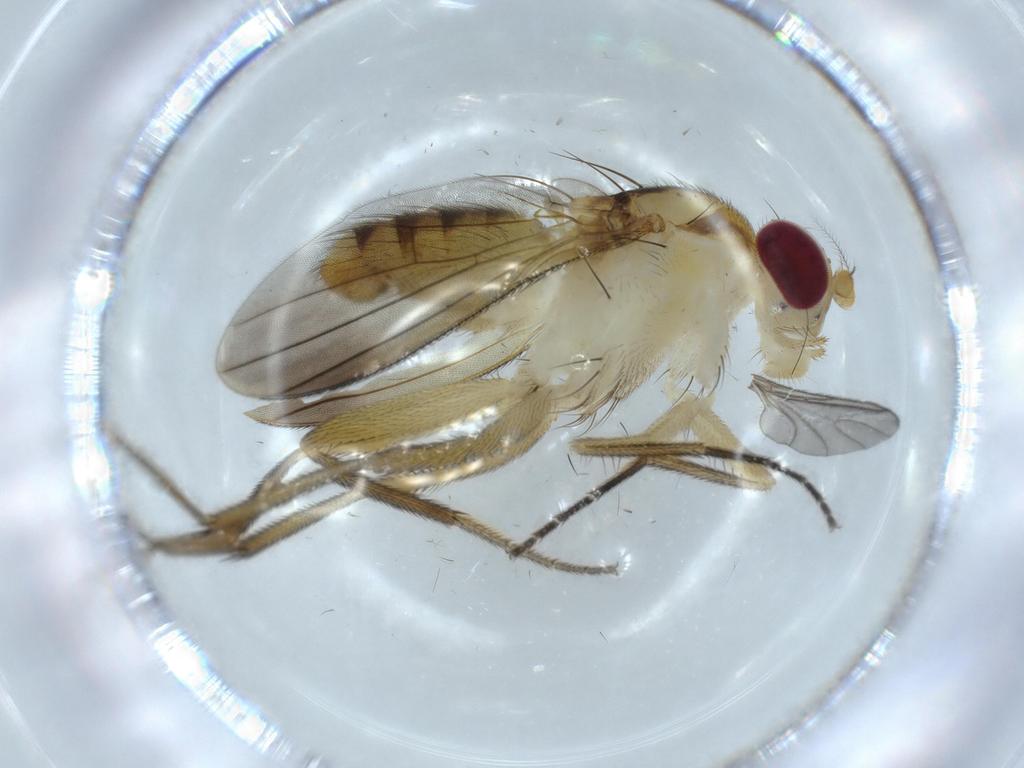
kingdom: Animalia
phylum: Arthropoda
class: Insecta
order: Diptera
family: Clusiidae
